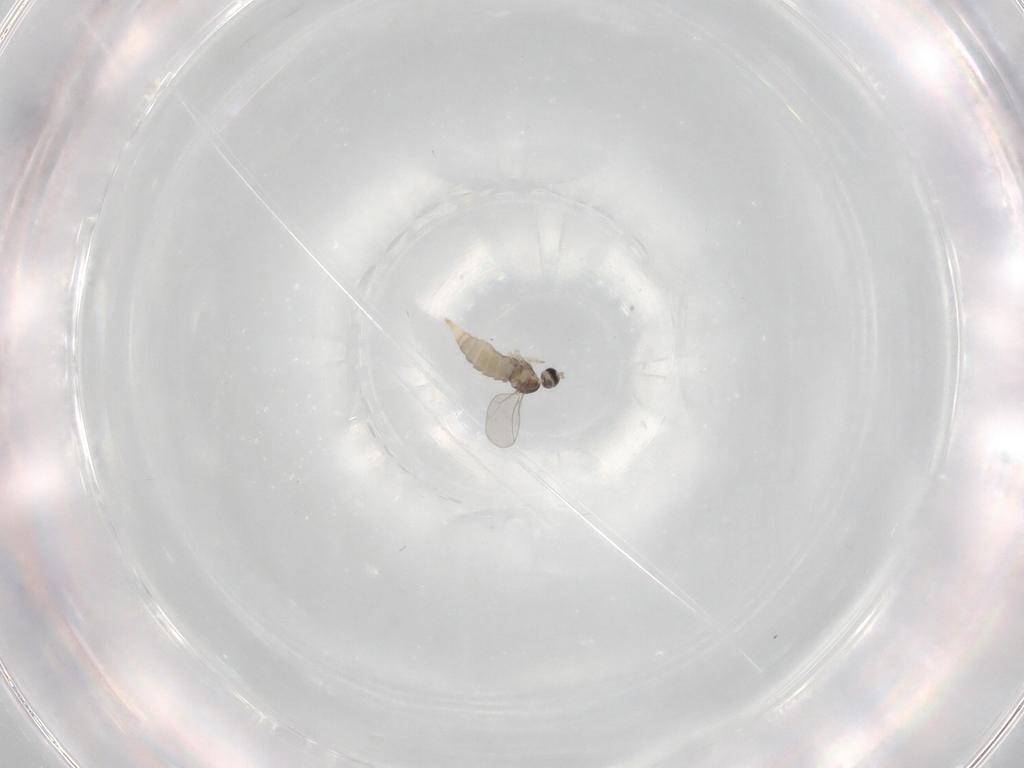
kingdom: Animalia
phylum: Arthropoda
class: Insecta
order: Diptera
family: Cecidomyiidae
